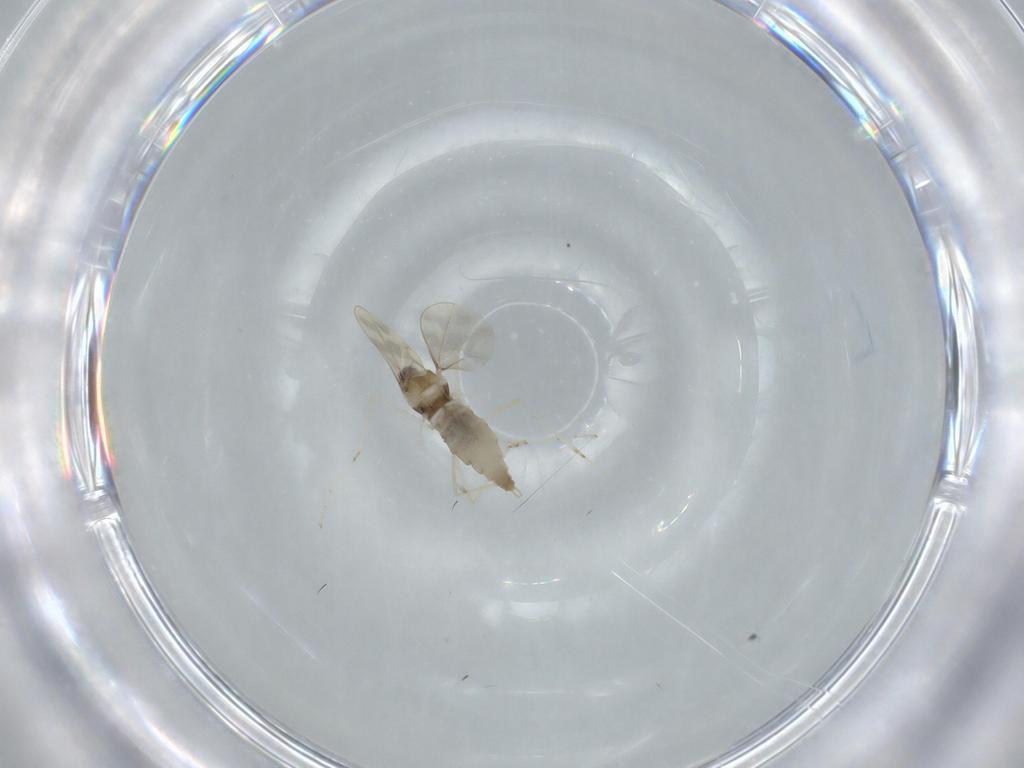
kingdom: Animalia
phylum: Arthropoda
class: Insecta
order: Diptera
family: Cecidomyiidae
